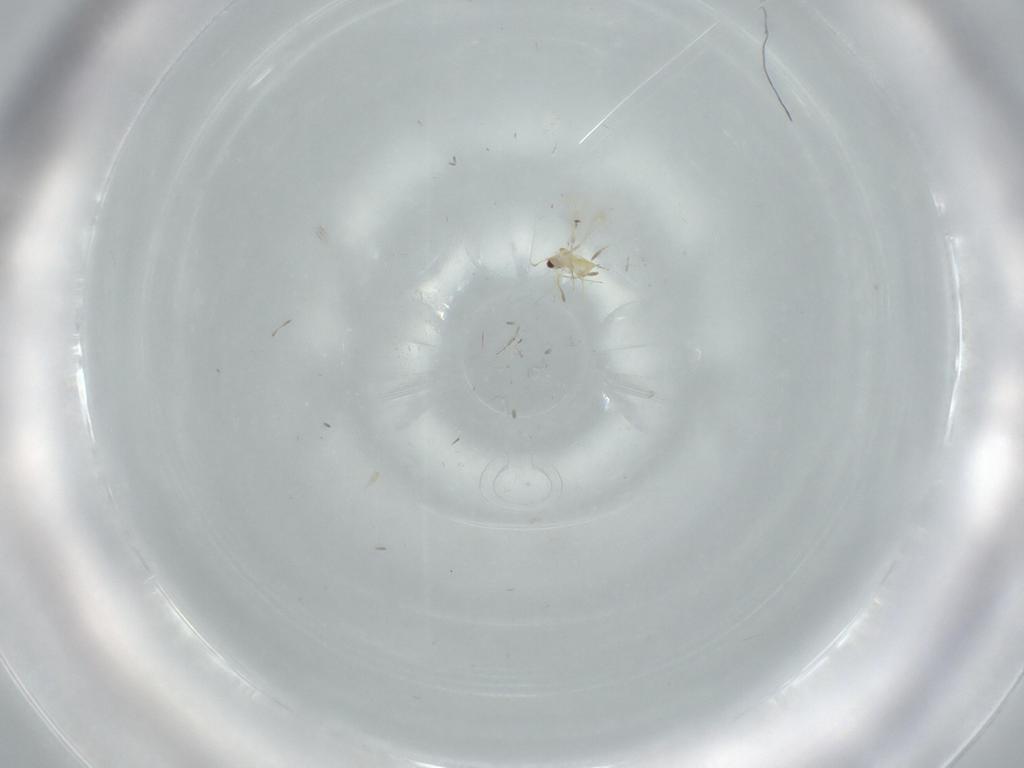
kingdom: Animalia
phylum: Arthropoda
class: Insecta
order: Hymenoptera
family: Mymaridae
